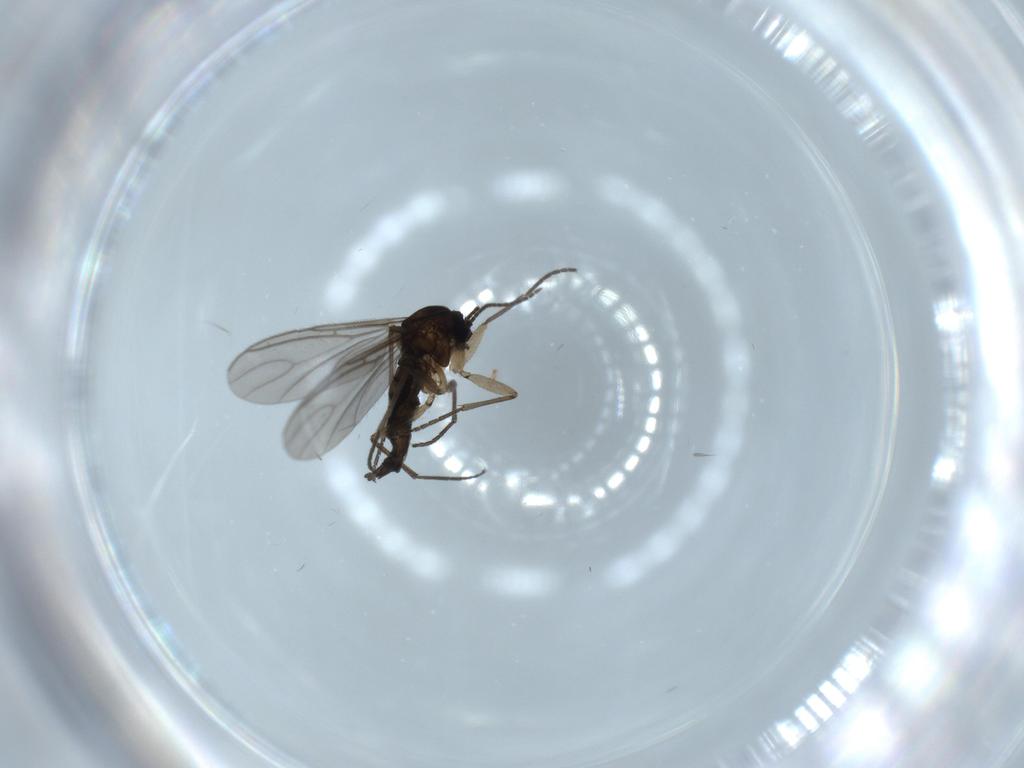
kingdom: Animalia
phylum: Arthropoda
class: Insecta
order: Diptera
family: Sciaridae
